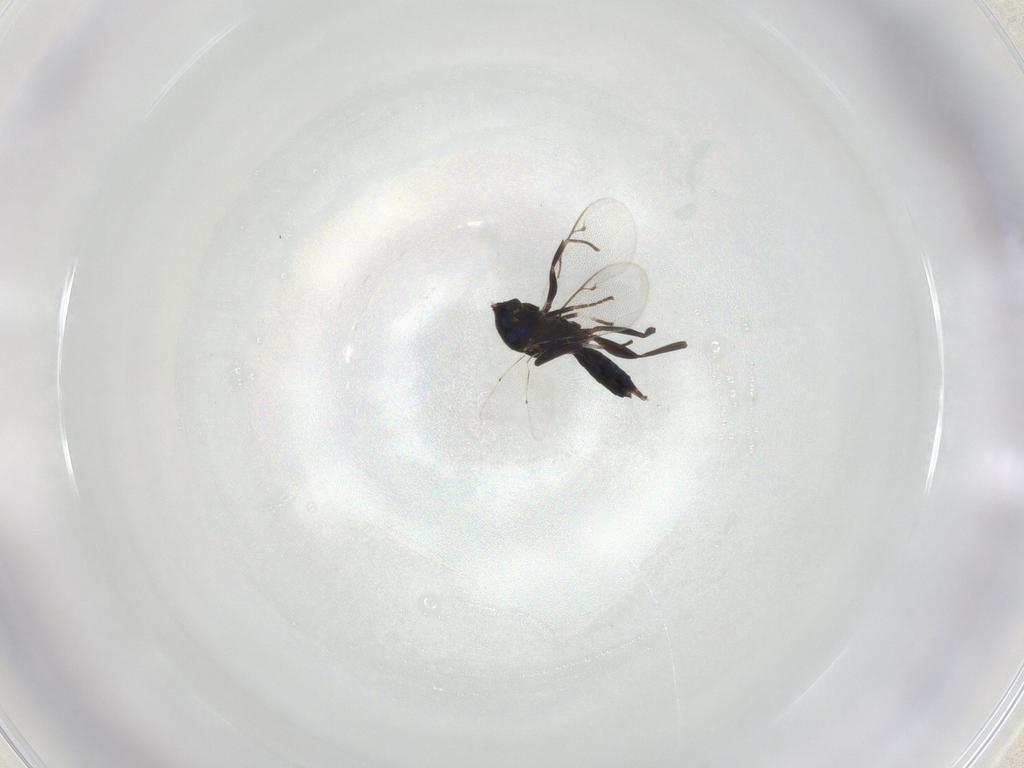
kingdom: Animalia
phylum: Arthropoda
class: Insecta
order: Hymenoptera
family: Eupelmidae
